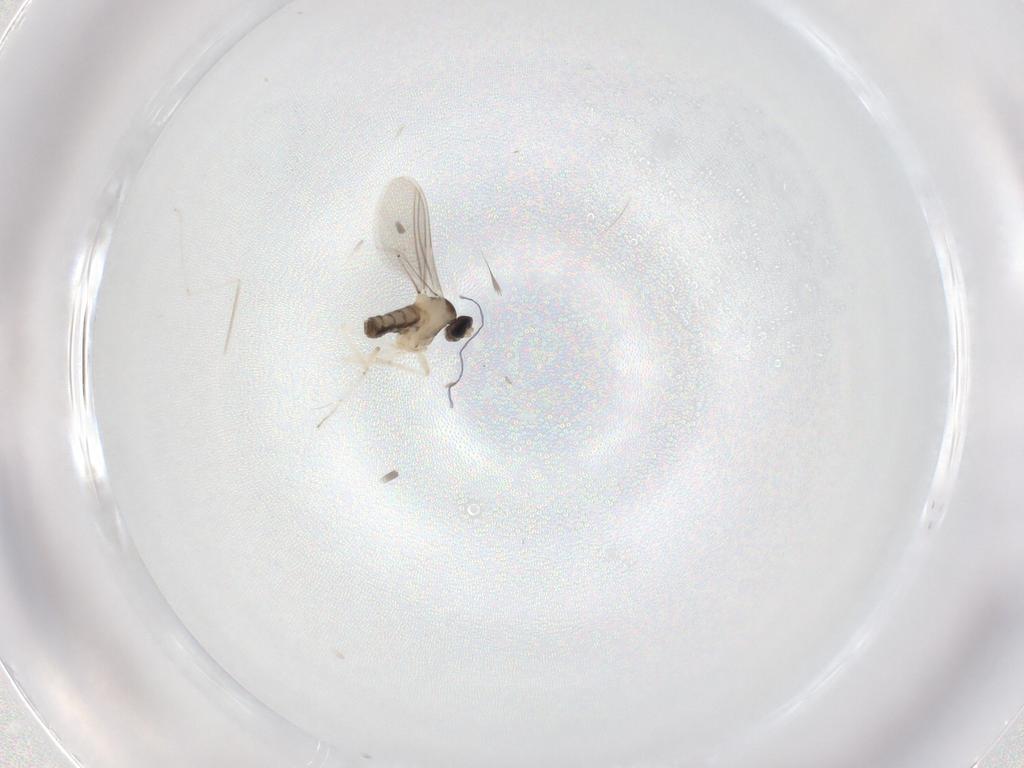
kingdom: Animalia
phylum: Arthropoda
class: Insecta
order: Diptera
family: Cecidomyiidae
